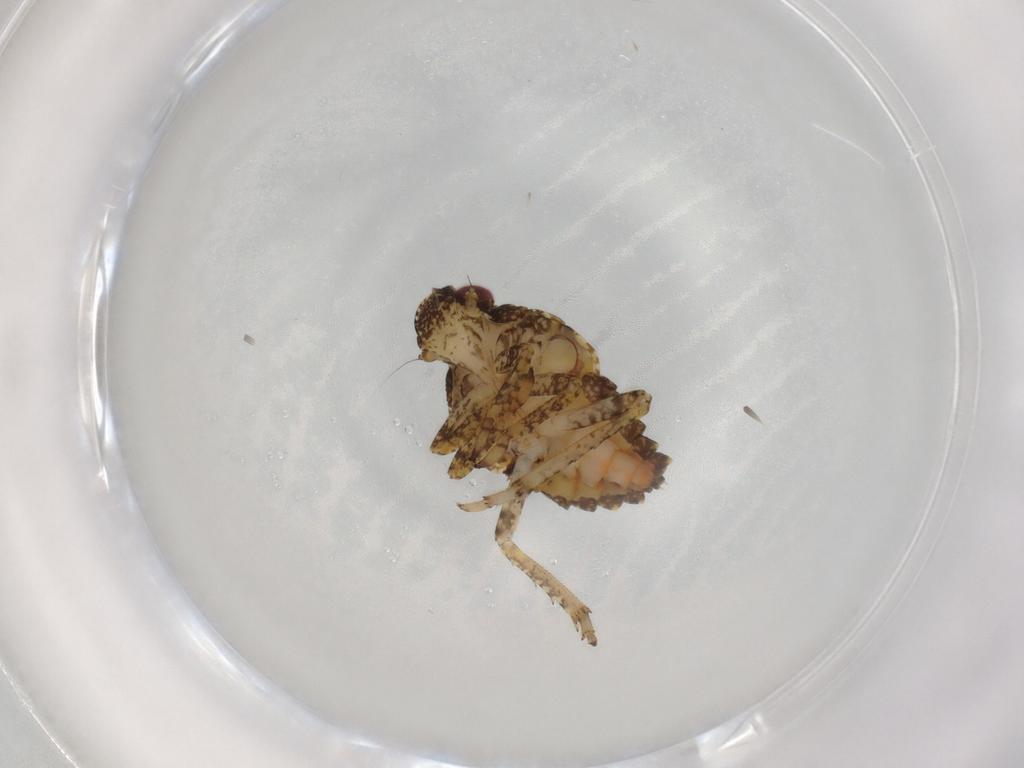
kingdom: Animalia
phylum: Arthropoda
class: Insecta
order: Hemiptera
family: Issidae
